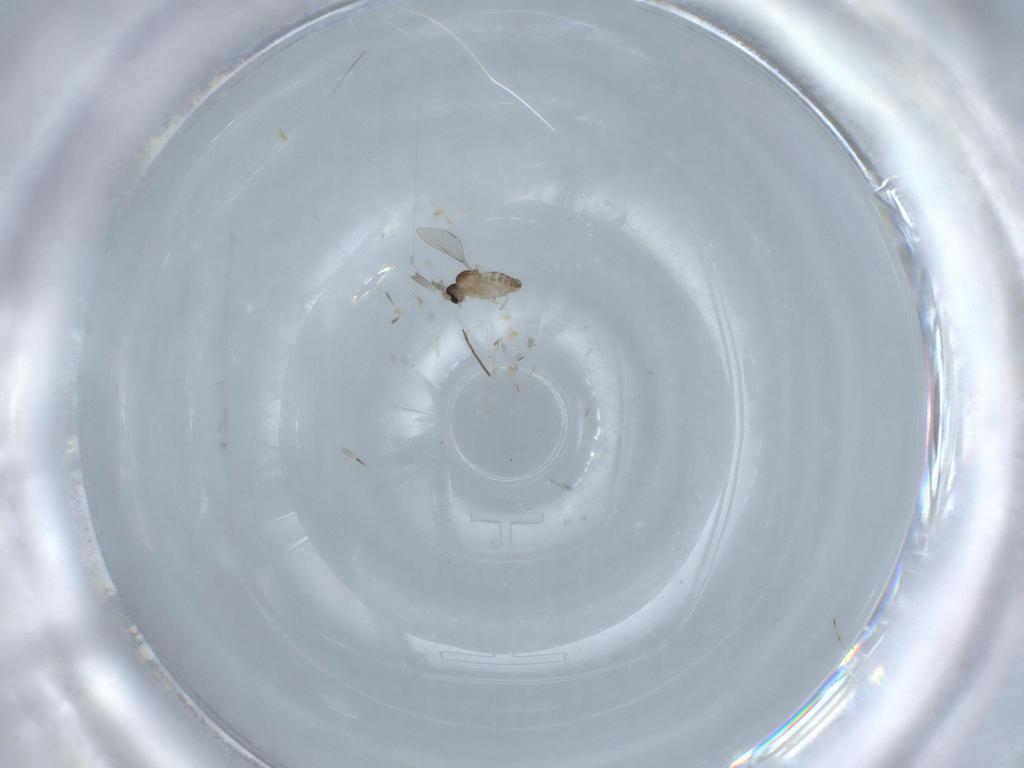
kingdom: Animalia
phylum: Arthropoda
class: Insecta
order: Diptera
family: Cecidomyiidae
